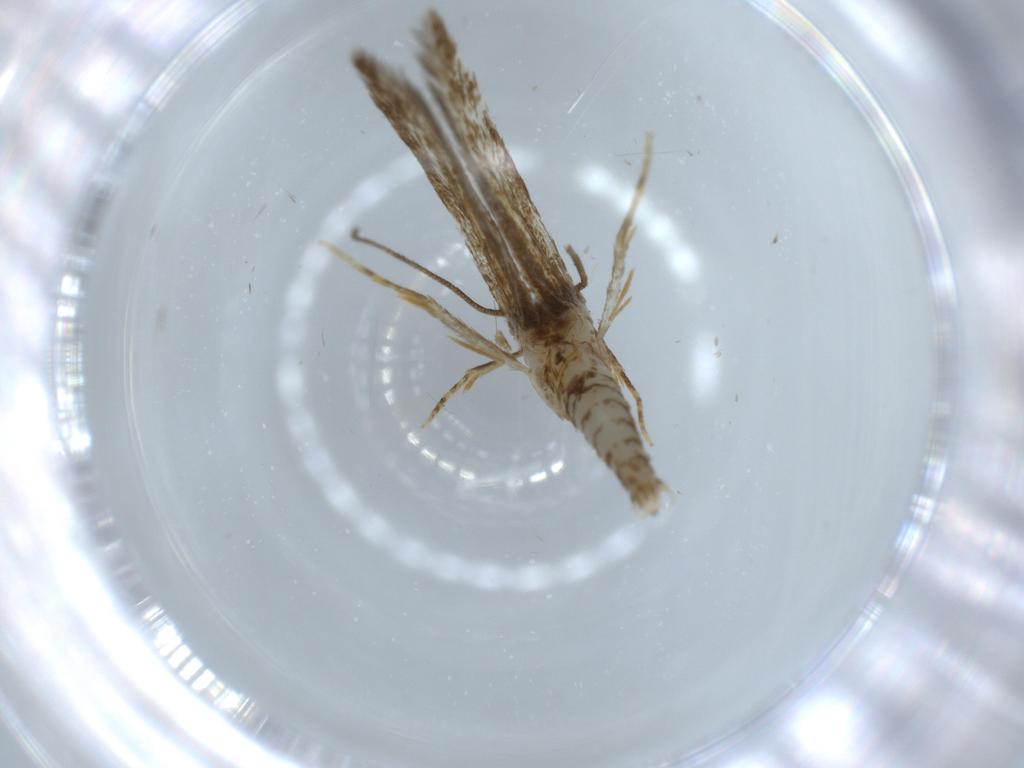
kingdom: Animalia
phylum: Arthropoda
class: Insecta
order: Lepidoptera
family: Tineidae
